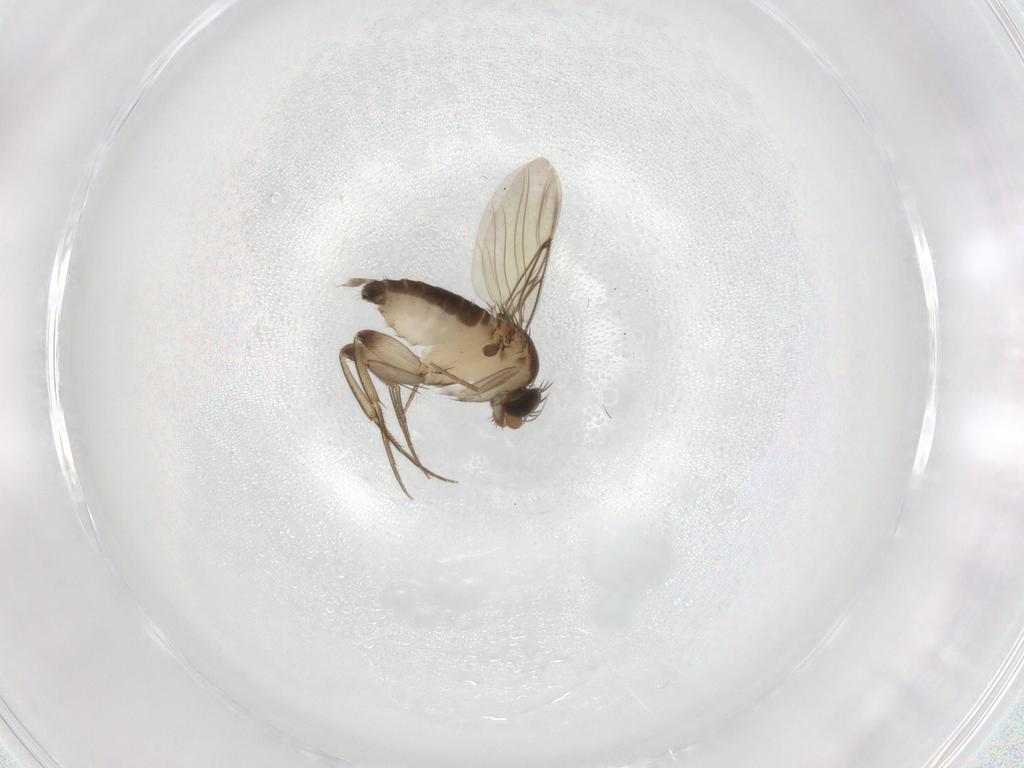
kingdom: Animalia
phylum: Arthropoda
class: Insecta
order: Diptera
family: Phoridae
